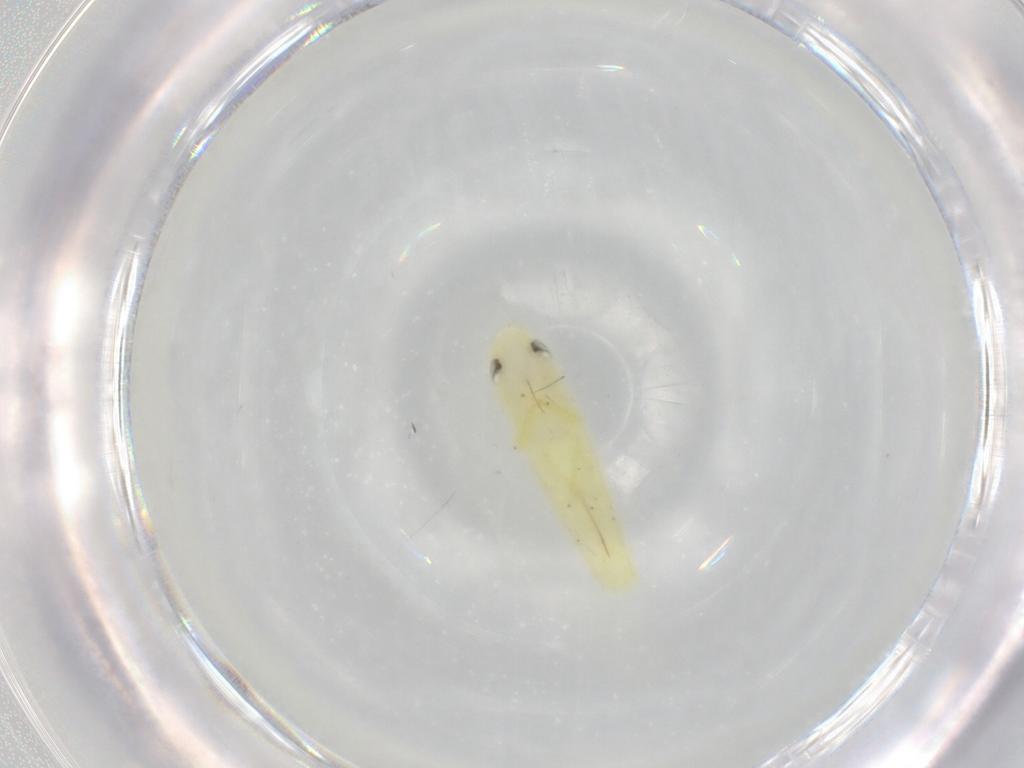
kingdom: Animalia
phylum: Arthropoda
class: Insecta
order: Hemiptera
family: Cicadellidae
